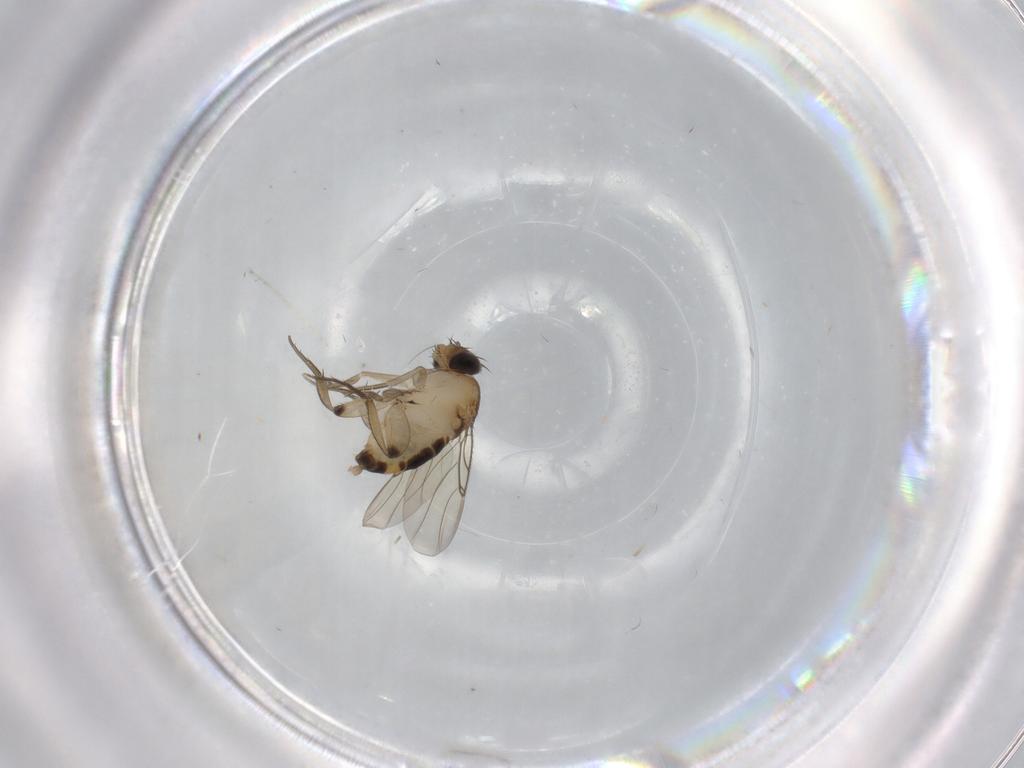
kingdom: Animalia
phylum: Arthropoda
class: Insecta
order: Diptera
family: Phoridae
